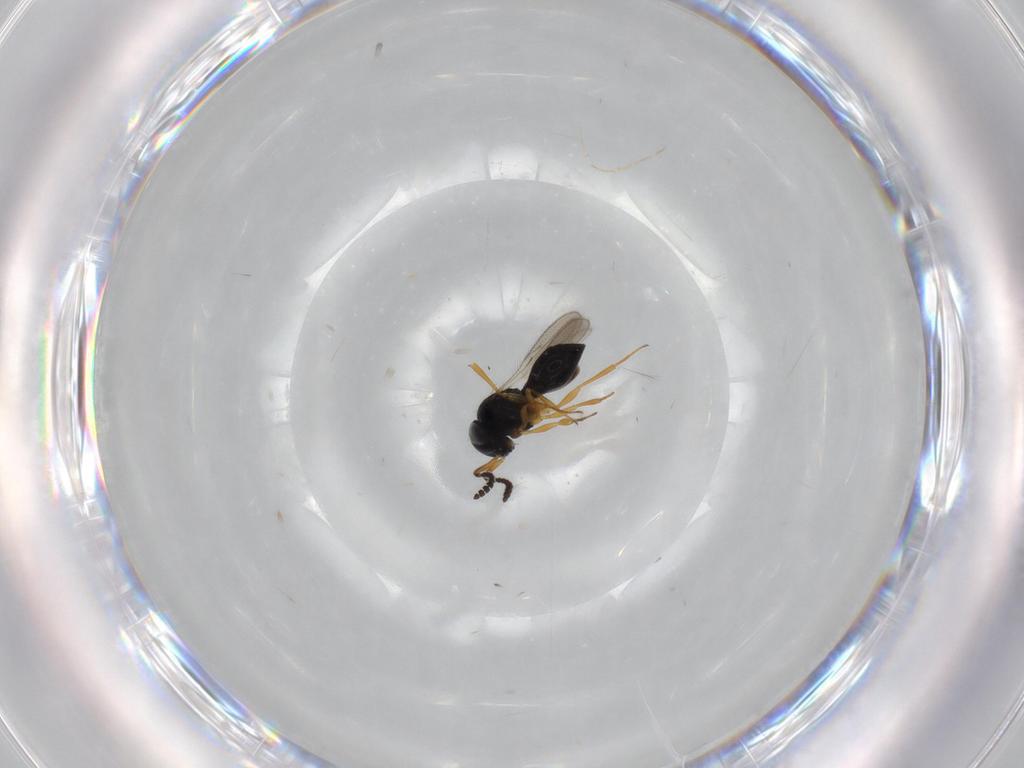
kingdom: Animalia
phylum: Arthropoda
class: Insecta
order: Hymenoptera
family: Scelionidae
